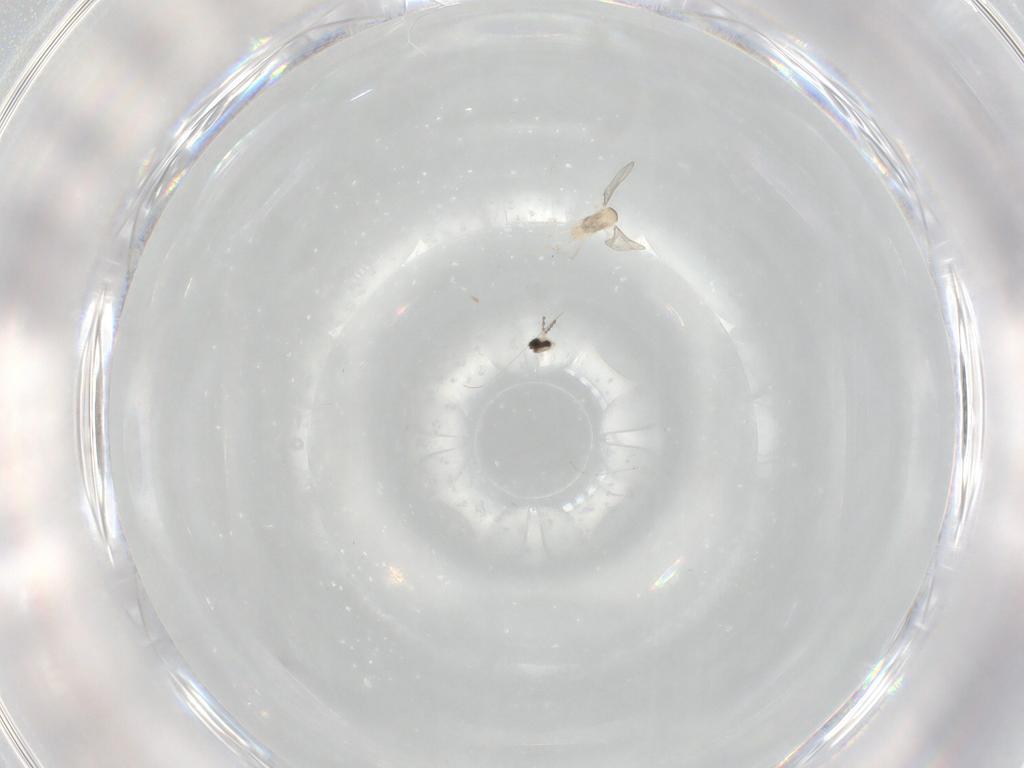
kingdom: Animalia
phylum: Arthropoda
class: Insecta
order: Diptera
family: Cecidomyiidae
